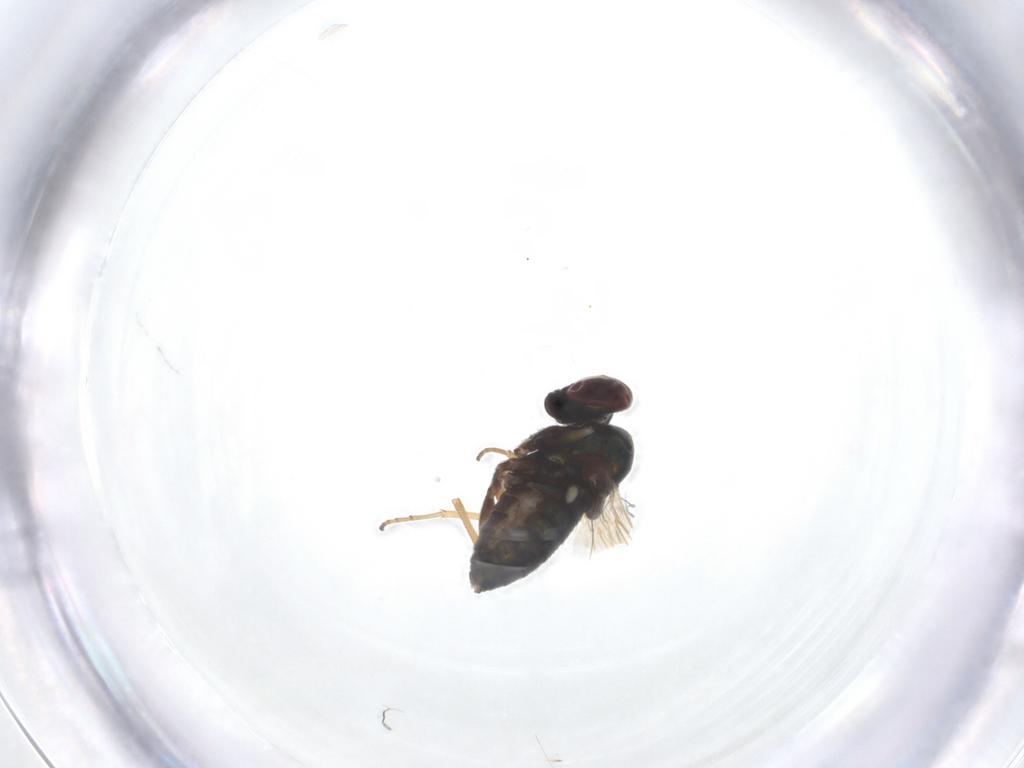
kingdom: Animalia
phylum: Arthropoda
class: Insecta
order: Diptera
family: Dolichopodidae
